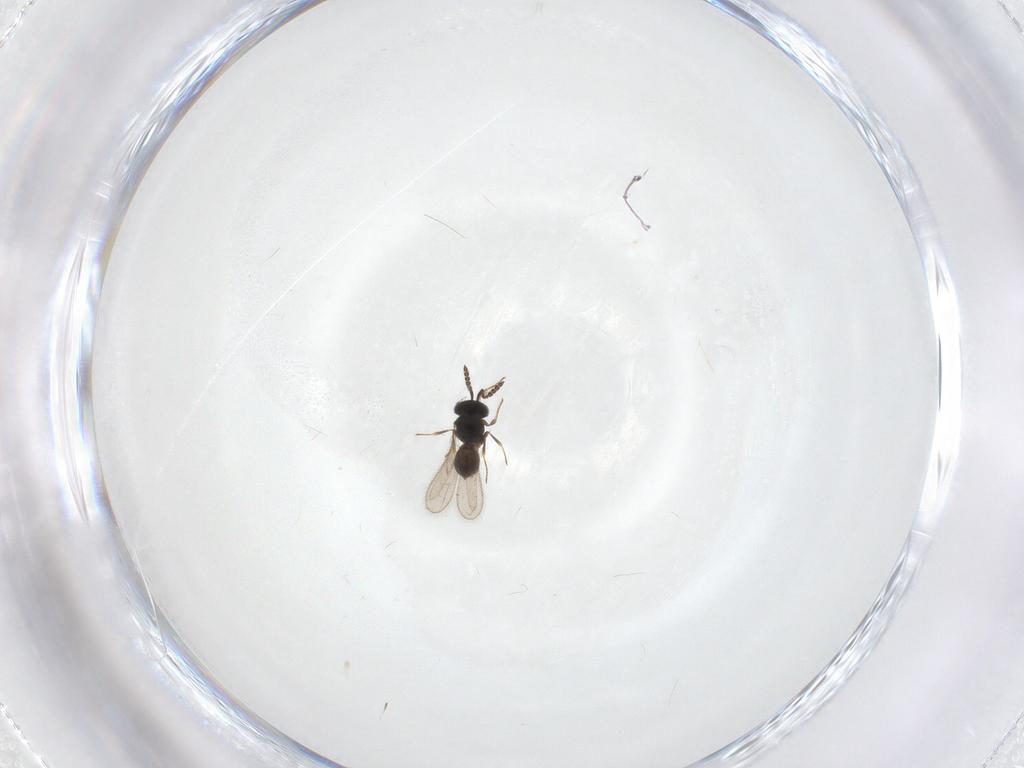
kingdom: Animalia
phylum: Arthropoda
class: Insecta
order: Hymenoptera
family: Scelionidae
